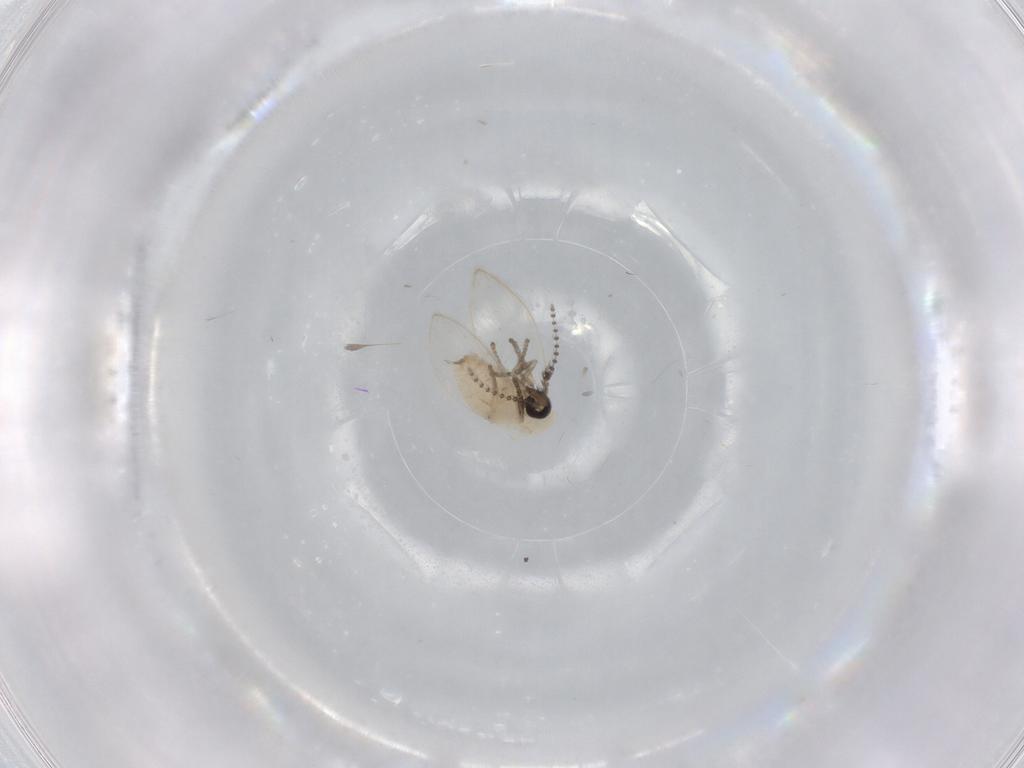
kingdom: Animalia
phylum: Arthropoda
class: Insecta
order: Diptera
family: Psychodidae
